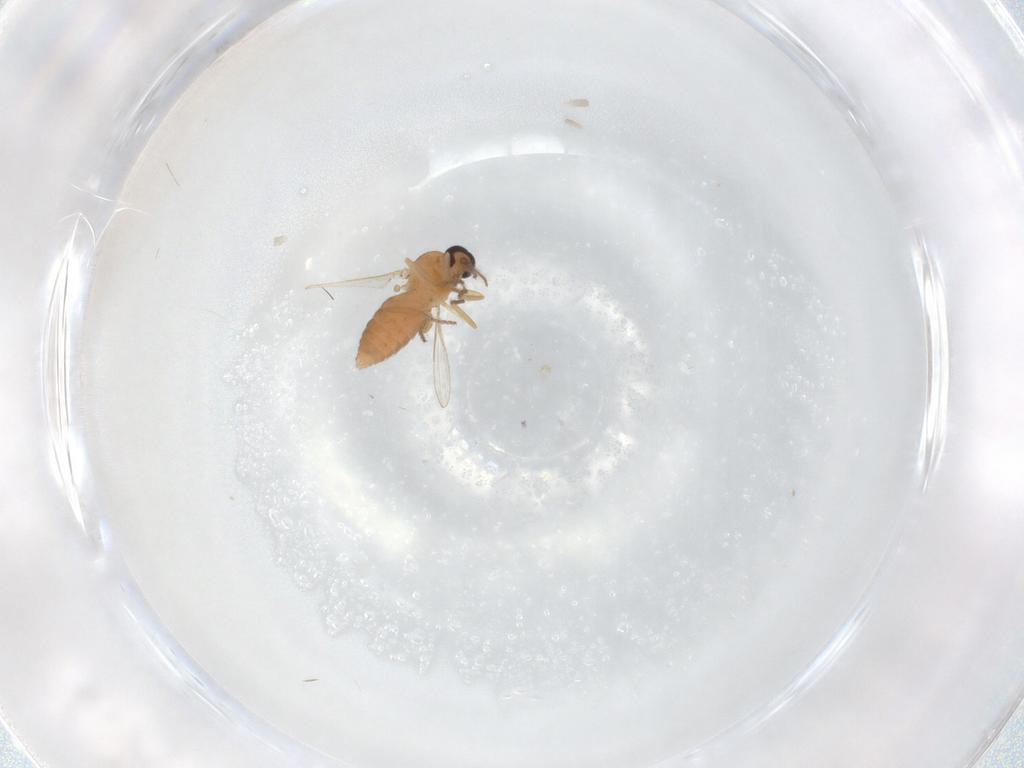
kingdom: Animalia
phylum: Arthropoda
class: Insecta
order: Diptera
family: Ceratopogonidae
